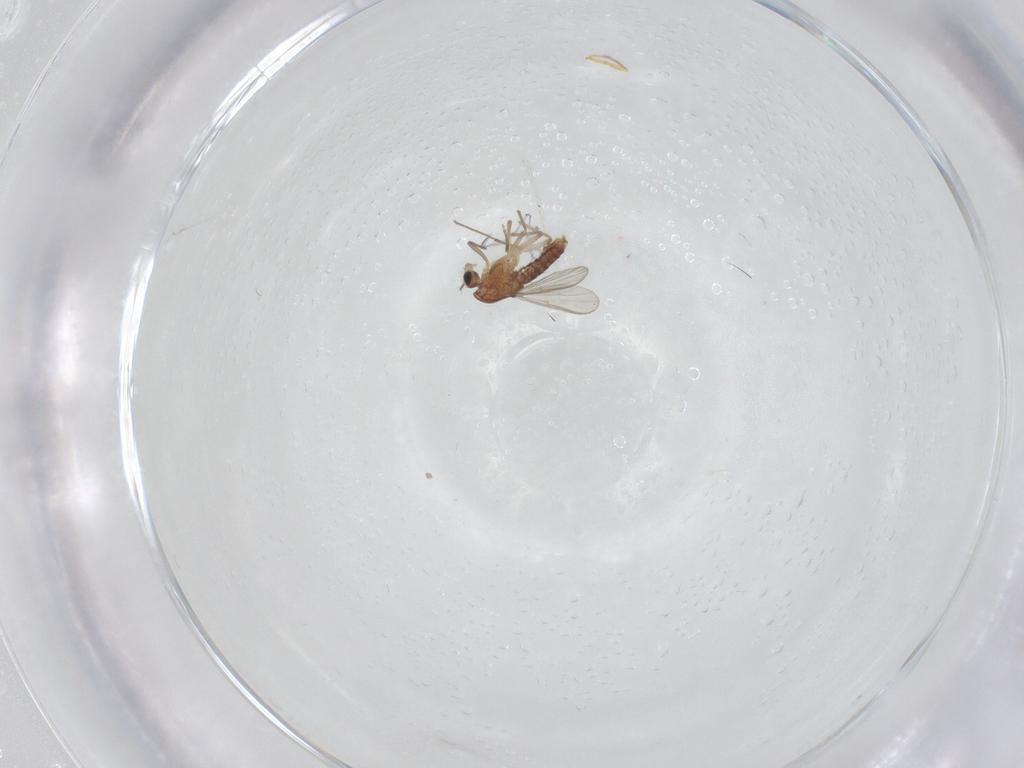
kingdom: Animalia
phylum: Arthropoda
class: Insecta
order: Diptera
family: Chironomidae
